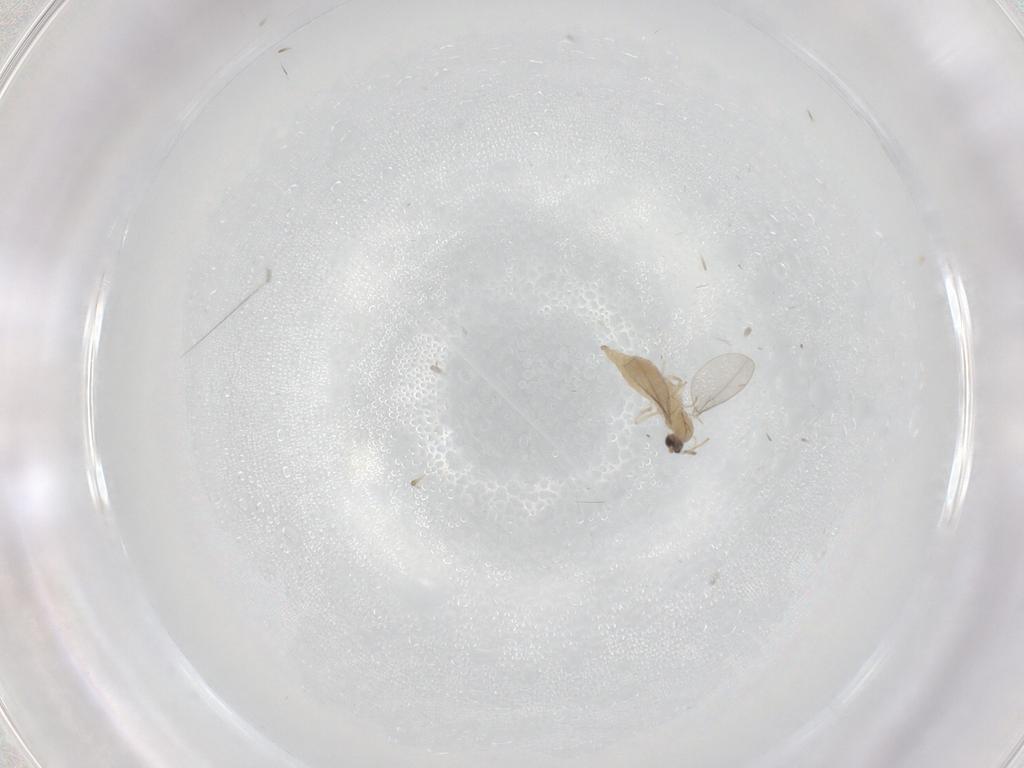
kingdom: Animalia
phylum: Arthropoda
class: Insecta
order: Diptera
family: Cecidomyiidae
